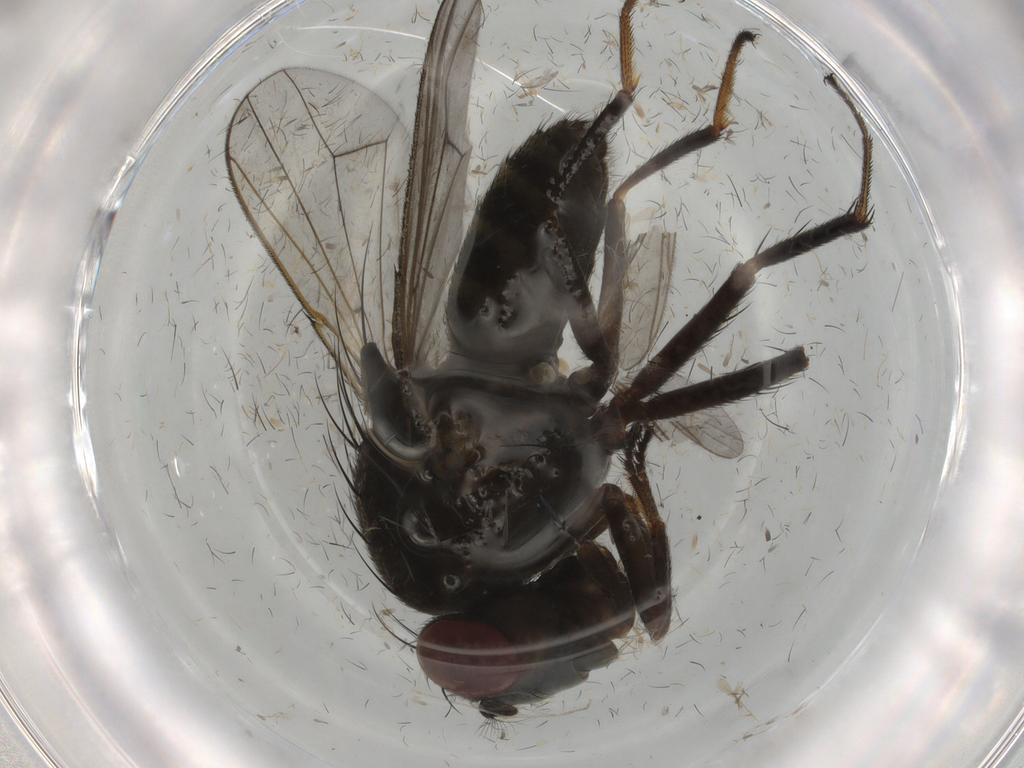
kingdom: Animalia
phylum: Arthropoda
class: Insecta
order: Diptera
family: Ephydridae
